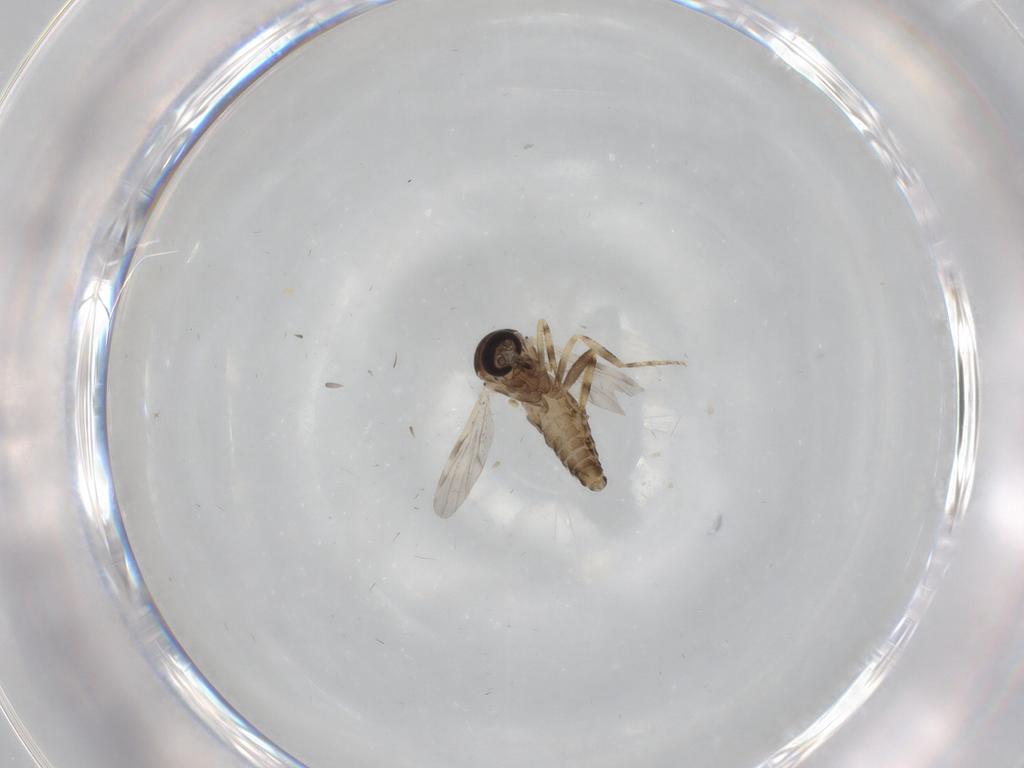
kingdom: Animalia
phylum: Arthropoda
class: Insecta
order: Diptera
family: Ceratopogonidae
